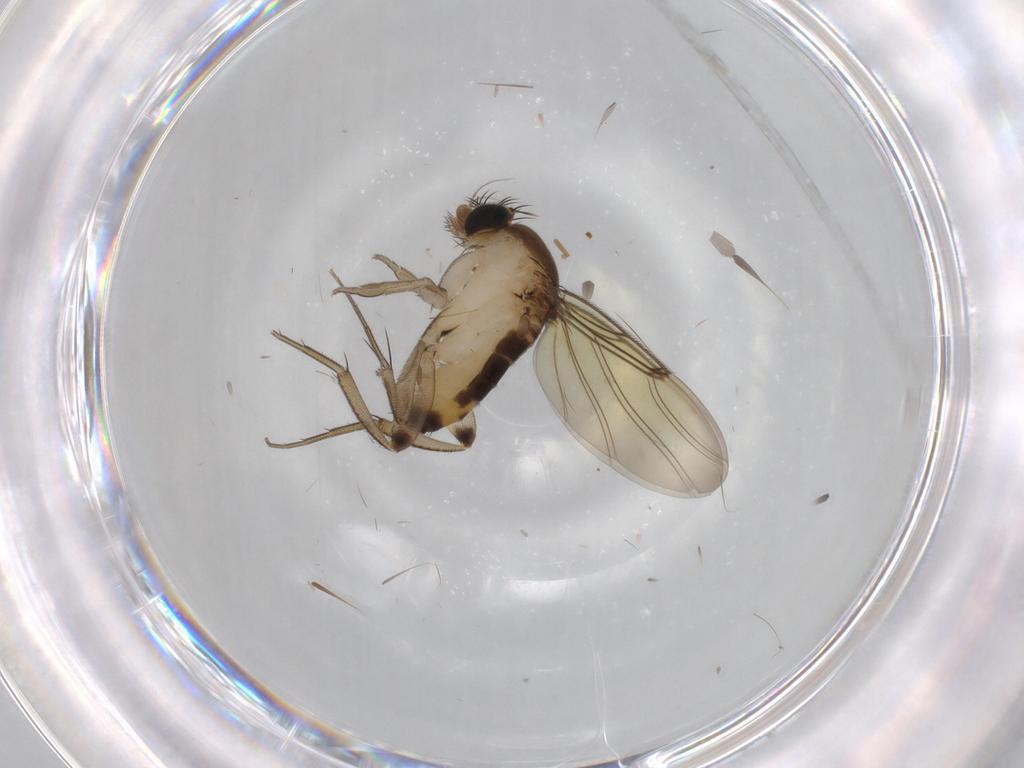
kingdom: Animalia
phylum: Arthropoda
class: Insecta
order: Diptera
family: Phoridae
